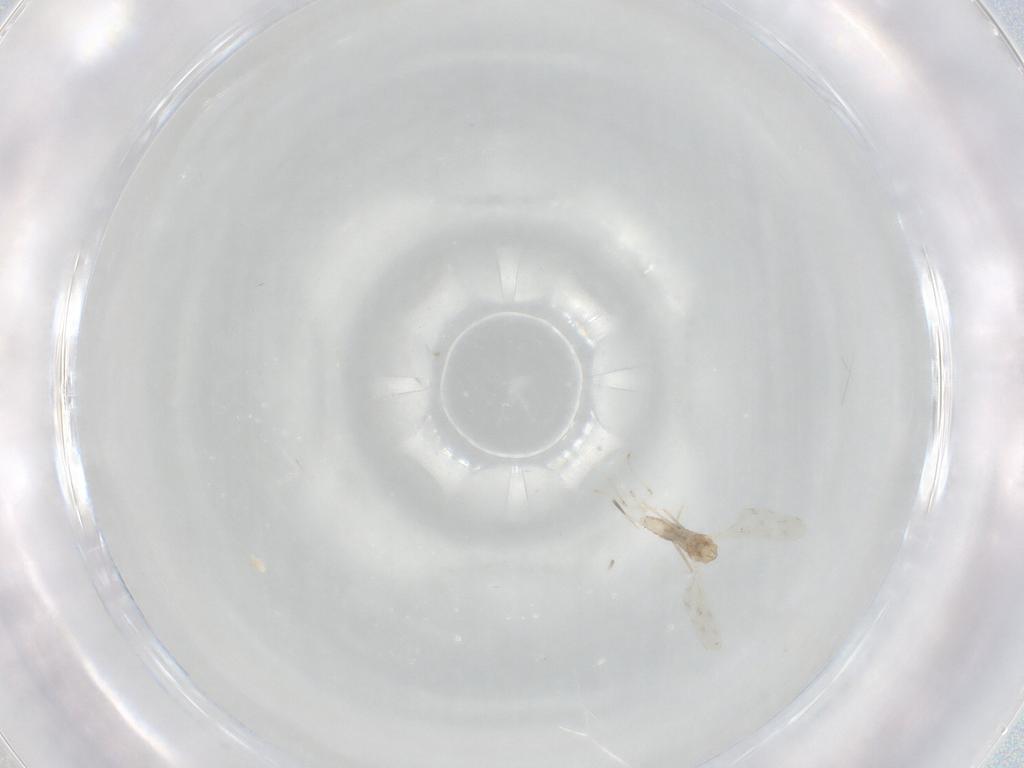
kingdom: Animalia
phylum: Arthropoda
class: Insecta
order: Diptera
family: Cecidomyiidae
